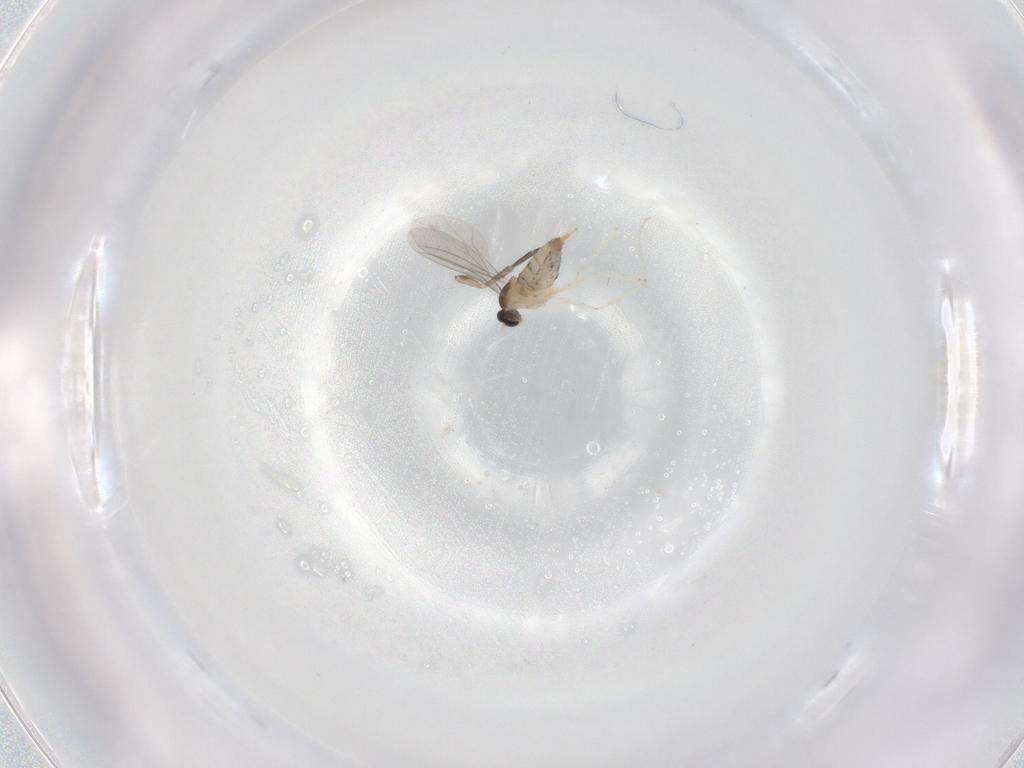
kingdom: Animalia
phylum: Arthropoda
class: Insecta
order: Diptera
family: Cecidomyiidae
